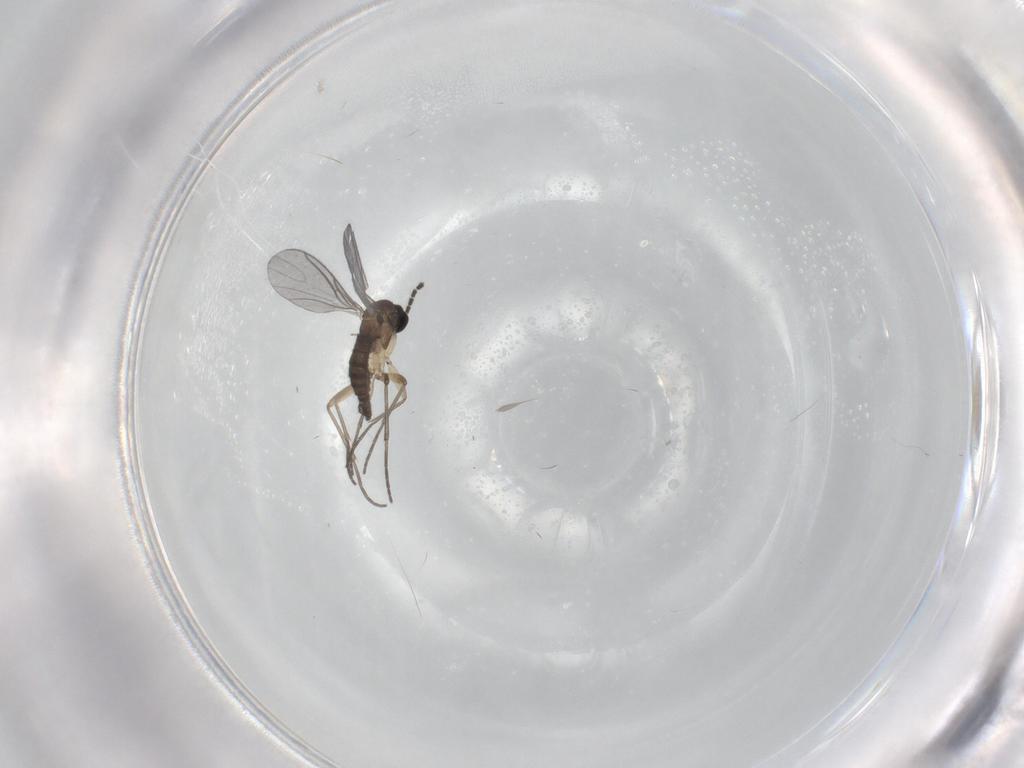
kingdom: Animalia
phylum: Arthropoda
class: Insecta
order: Diptera
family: Sciaridae
